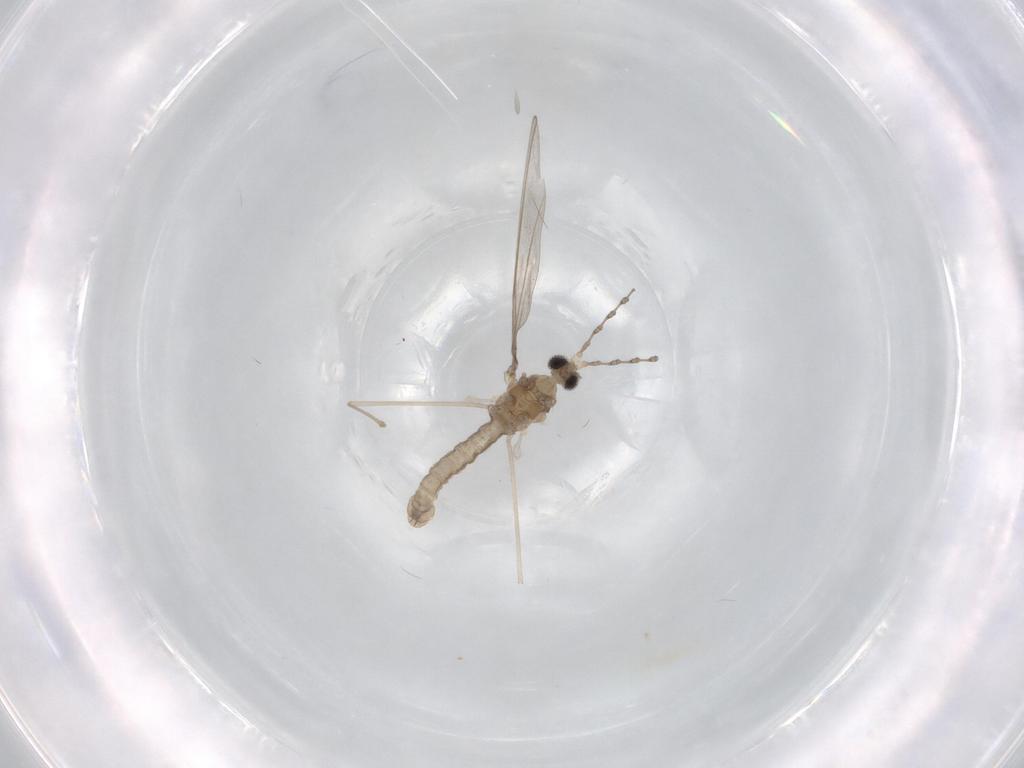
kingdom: Animalia
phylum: Arthropoda
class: Insecta
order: Diptera
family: Cecidomyiidae
